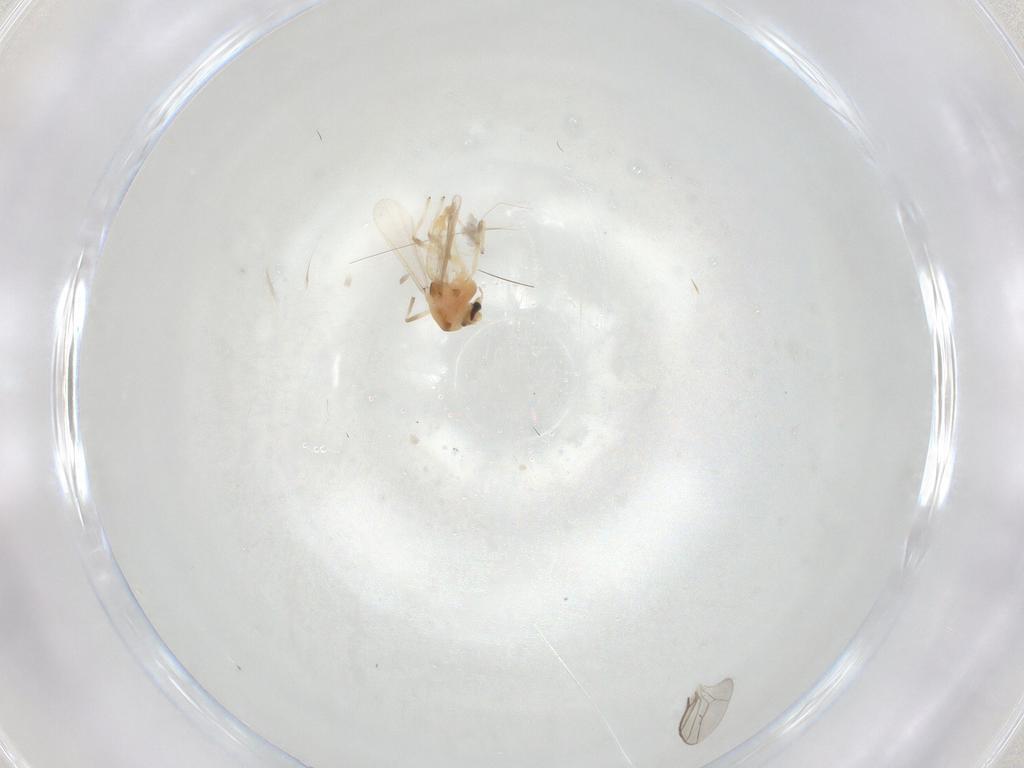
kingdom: Animalia
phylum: Arthropoda
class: Insecta
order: Diptera
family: Chironomidae
